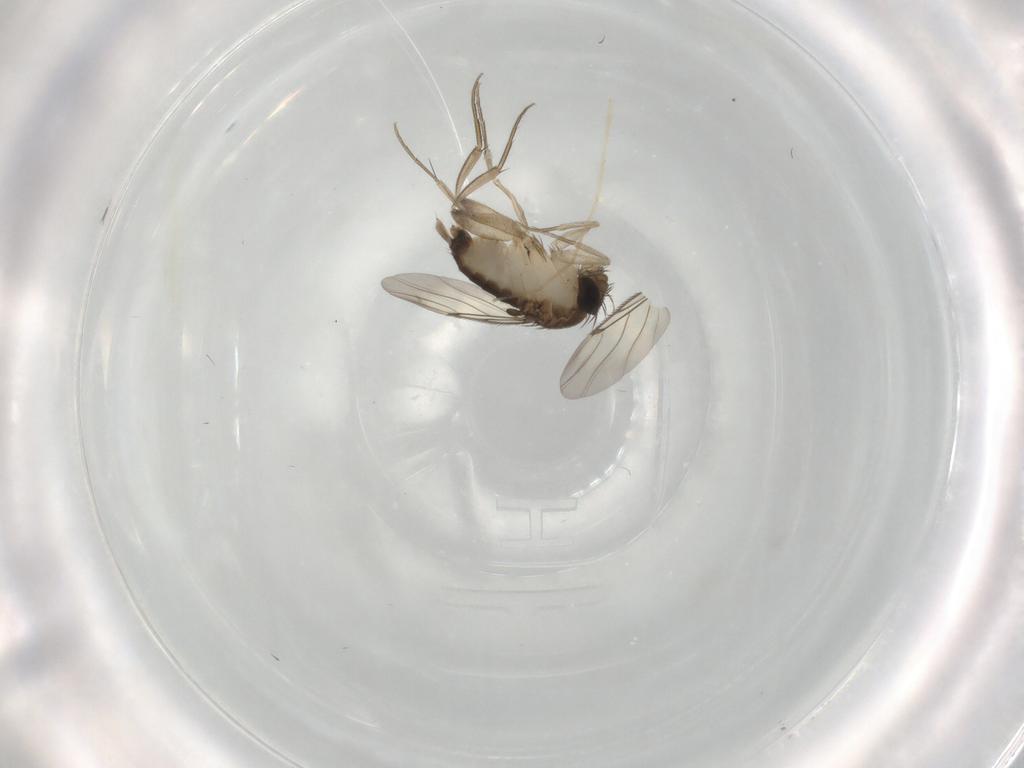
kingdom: Animalia
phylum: Arthropoda
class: Insecta
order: Diptera
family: Phoridae
